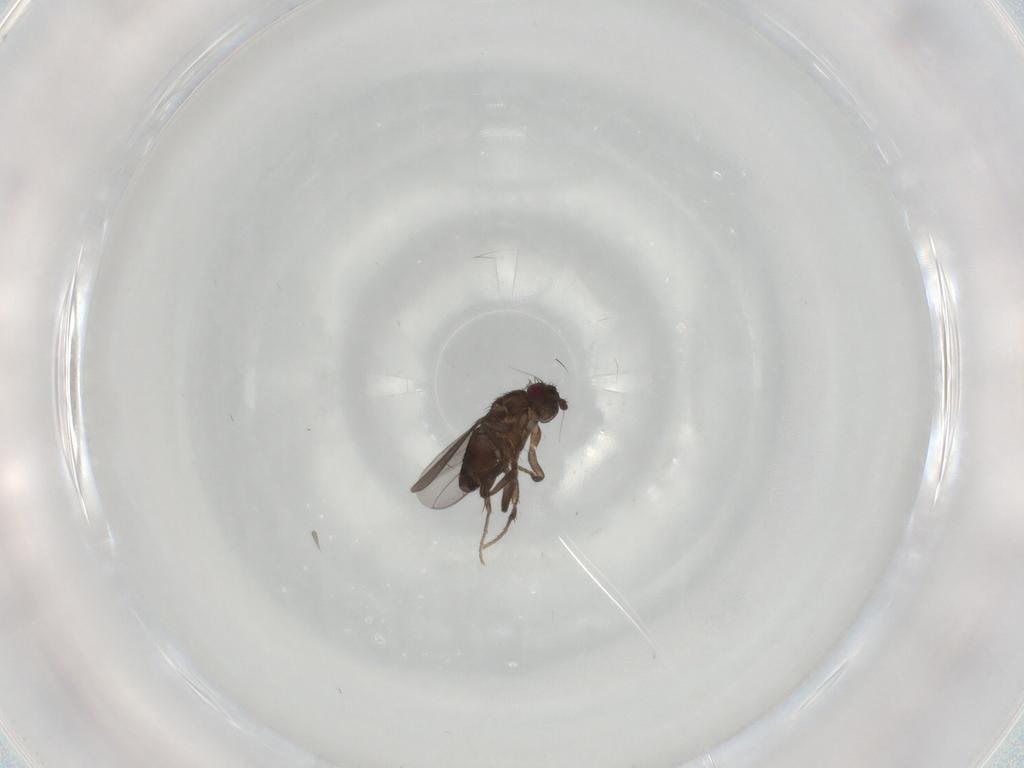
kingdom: Animalia
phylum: Arthropoda
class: Insecta
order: Diptera
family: Sphaeroceridae
